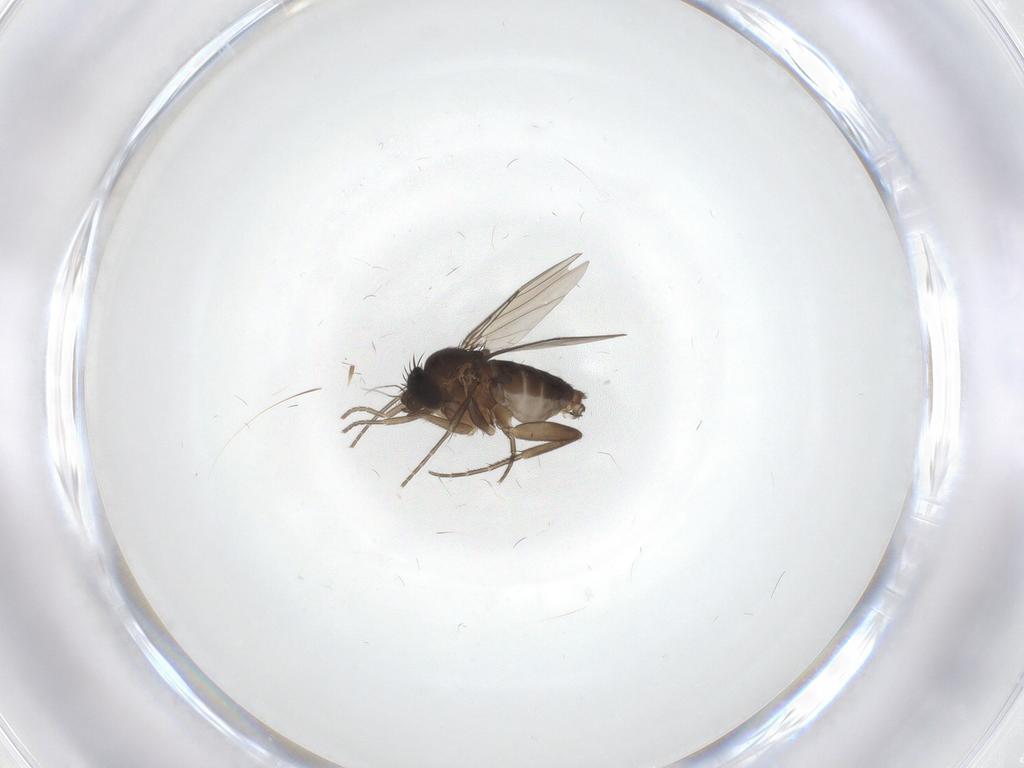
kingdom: Animalia
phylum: Arthropoda
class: Insecta
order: Diptera
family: Phoridae
